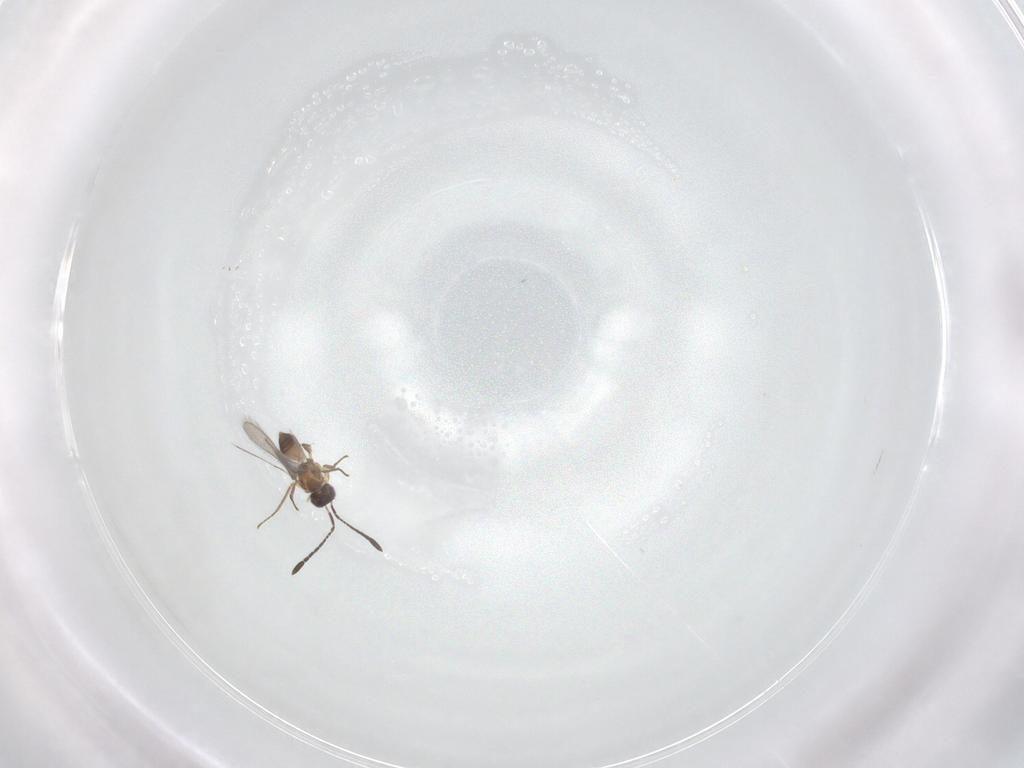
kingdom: Animalia
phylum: Arthropoda
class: Insecta
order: Hymenoptera
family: Mymaridae
